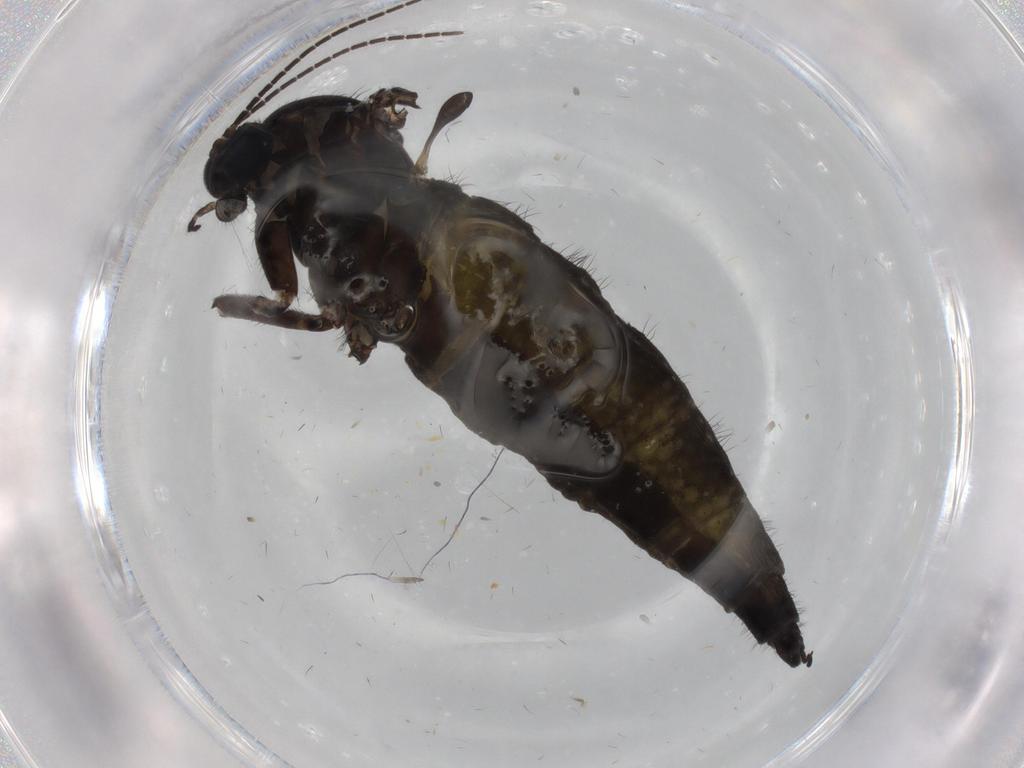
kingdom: Animalia
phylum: Arthropoda
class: Insecta
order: Diptera
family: Sciaridae
